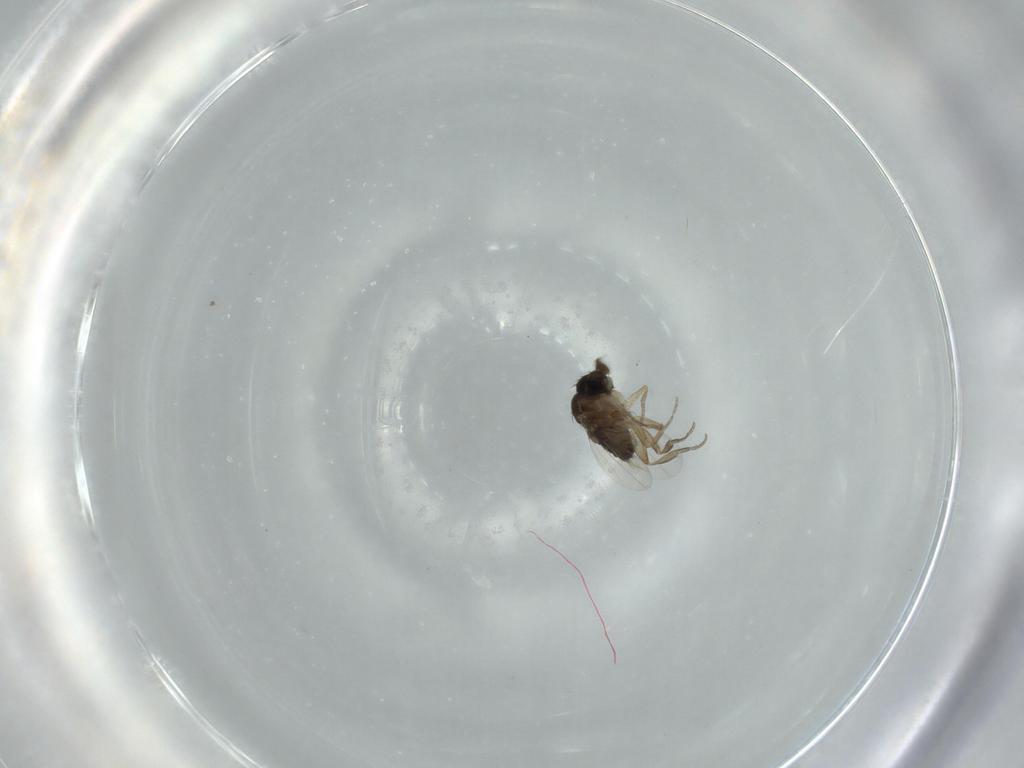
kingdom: Animalia
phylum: Arthropoda
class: Insecta
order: Diptera
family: Phoridae
